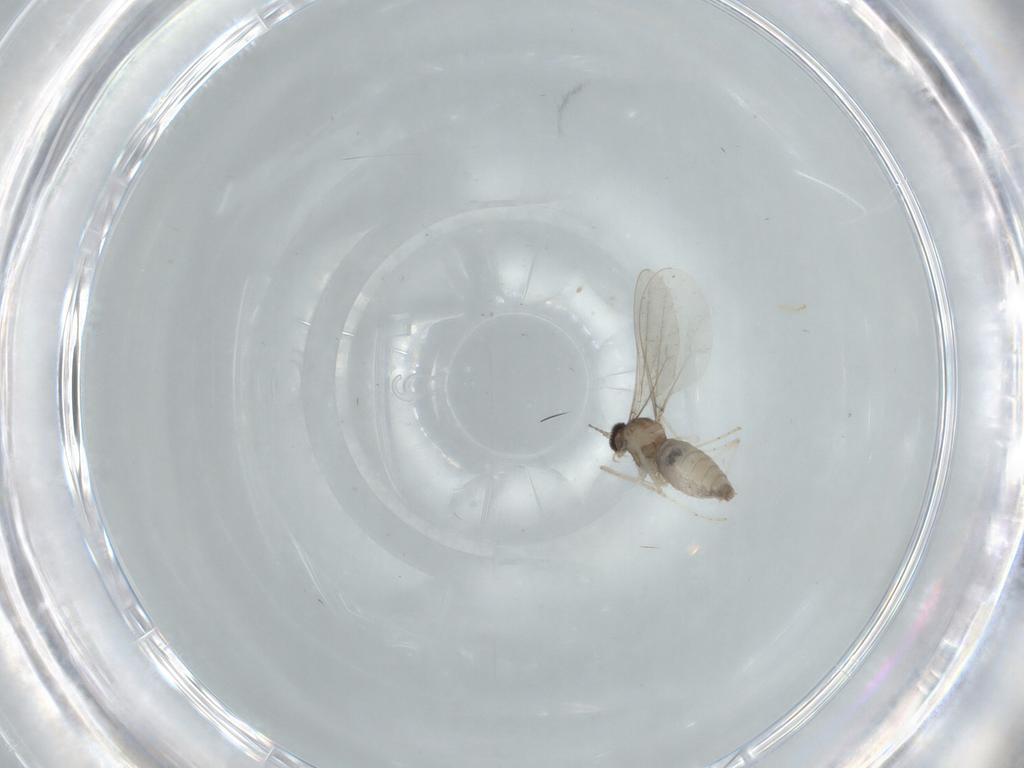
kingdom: Animalia
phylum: Arthropoda
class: Insecta
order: Diptera
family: Cecidomyiidae
